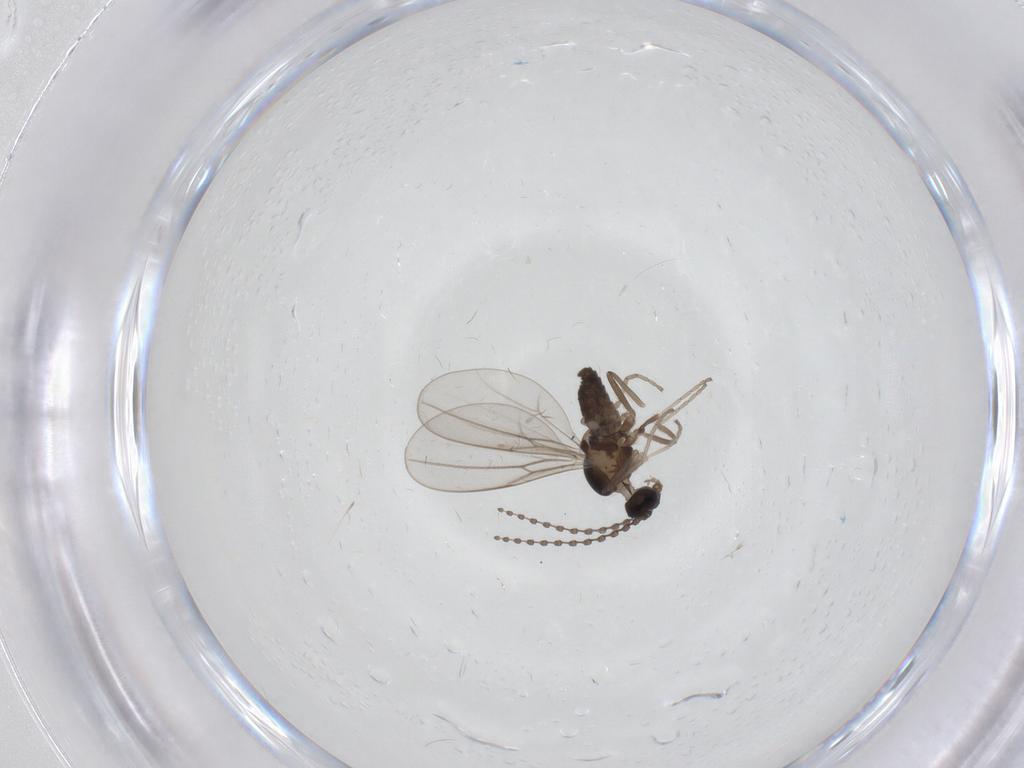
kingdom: Animalia
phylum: Arthropoda
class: Insecta
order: Diptera
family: Cecidomyiidae
